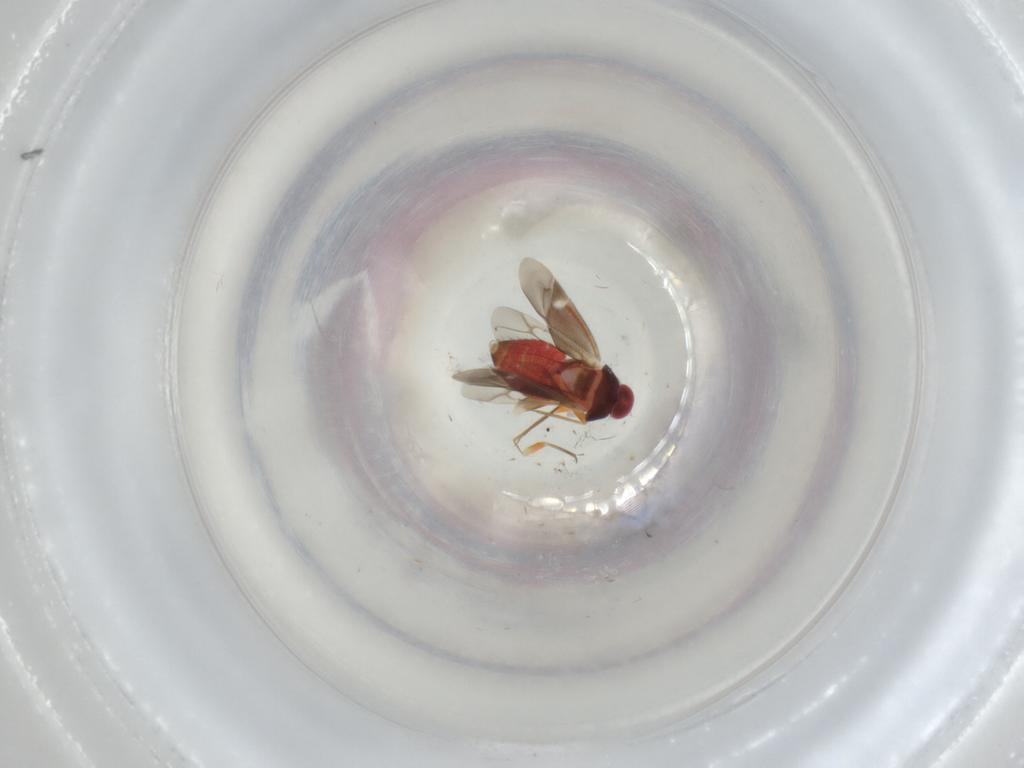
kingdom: Animalia
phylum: Arthropoda
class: Insecta
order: Hemiptera
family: Miridae
